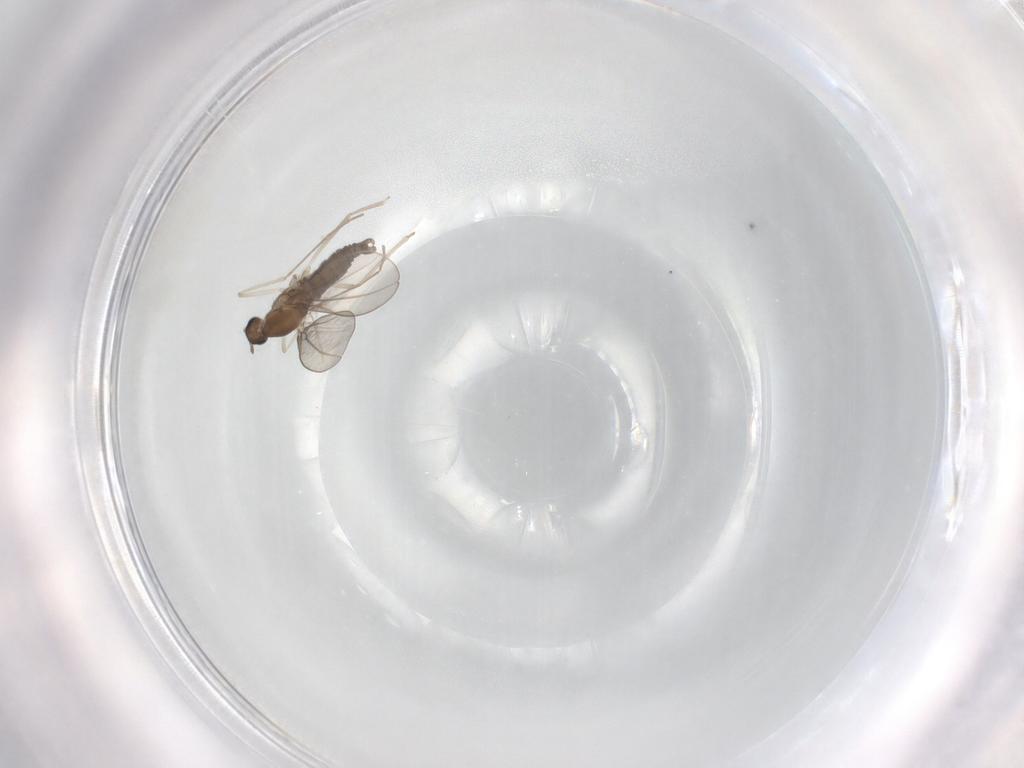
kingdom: Animalia
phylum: Arthropoda
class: Insecta
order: Diptera
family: Cecidomyiidae
